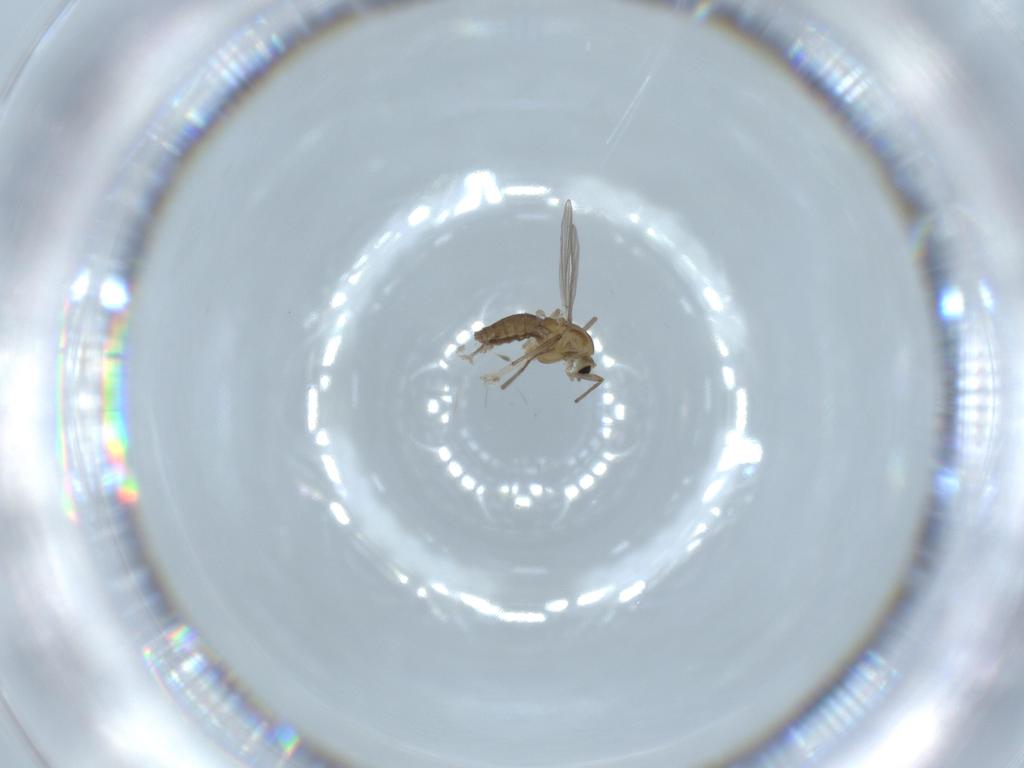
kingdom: Animalia
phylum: Arthropoda
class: Insecta
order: Diptera
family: Chironomidae
